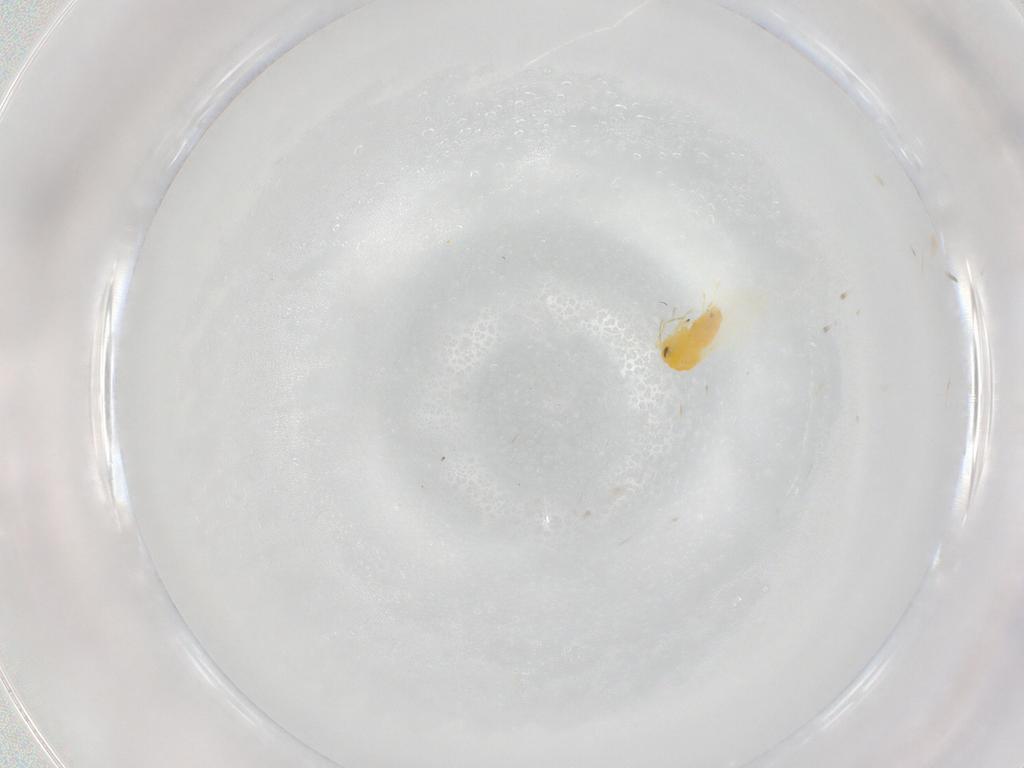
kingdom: Animalia
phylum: Arthropoda
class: Insecta
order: Hemiptera
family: Aleyrodidae
